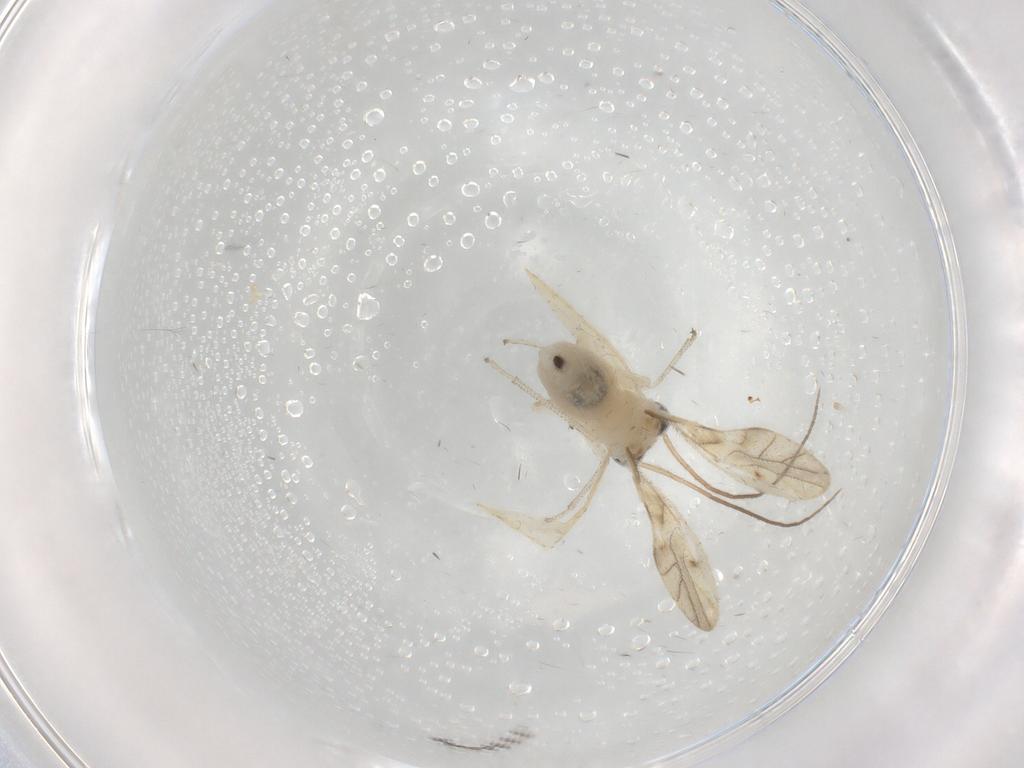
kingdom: Animalia
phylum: Arthropoda
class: Insecta
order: Psocodea
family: Caeciliusidae
